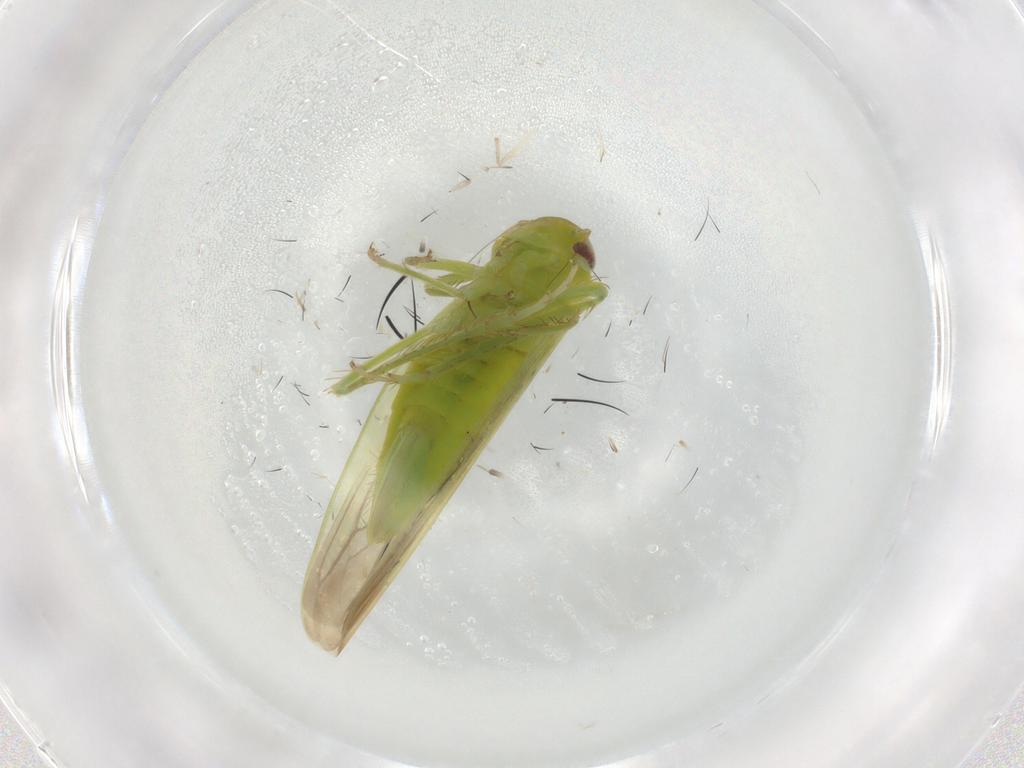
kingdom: Animalia
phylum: Arthropoda
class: Insecta
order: Hemiptera
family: Cicadellidae
